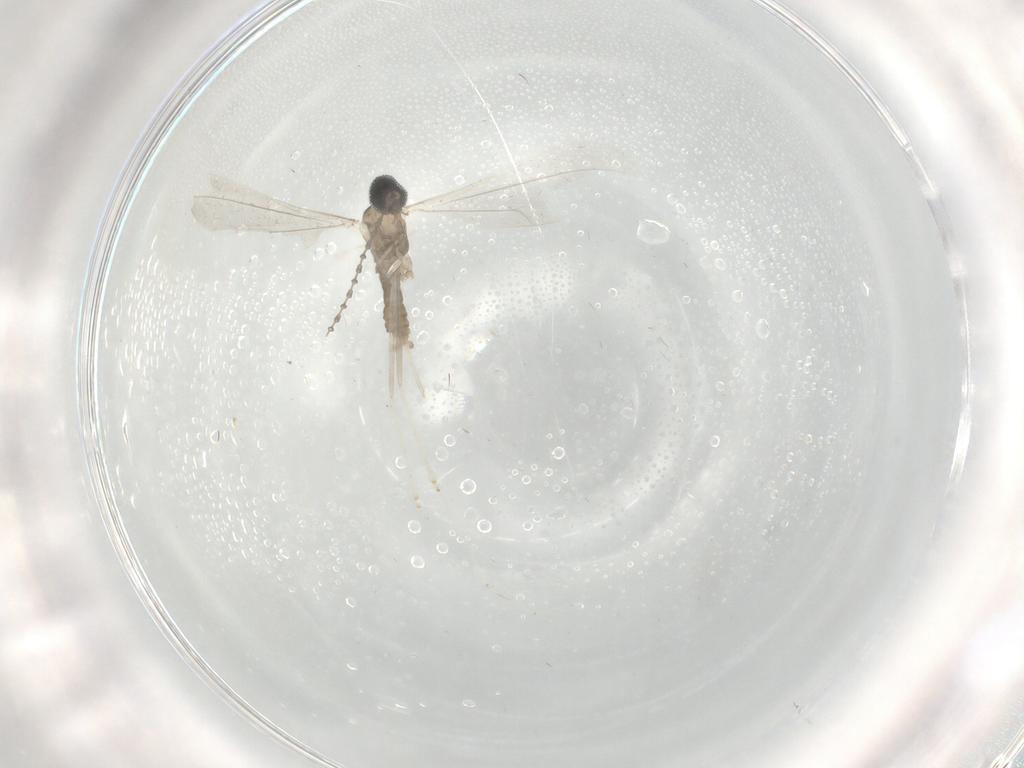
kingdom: Animalia
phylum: Arthropoda
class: Insecta
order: Diptera
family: Cecidomyiidae
